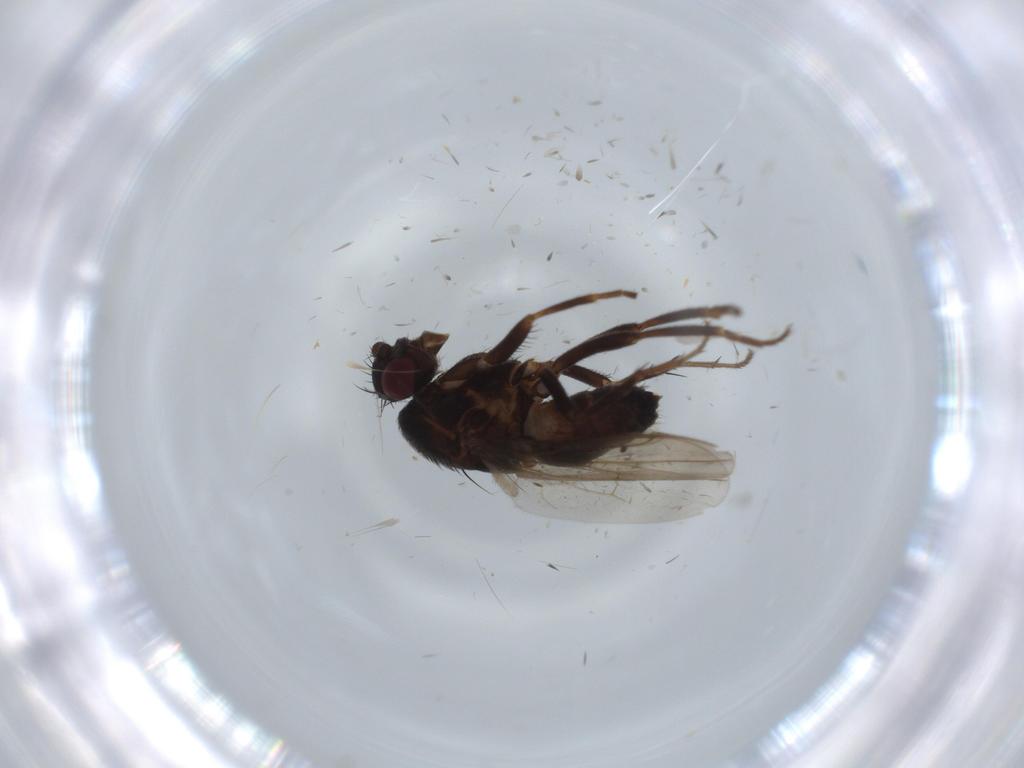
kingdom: Animalia
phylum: Arthropoda
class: Insecta
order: Diptera
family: Sphaeroceridae
